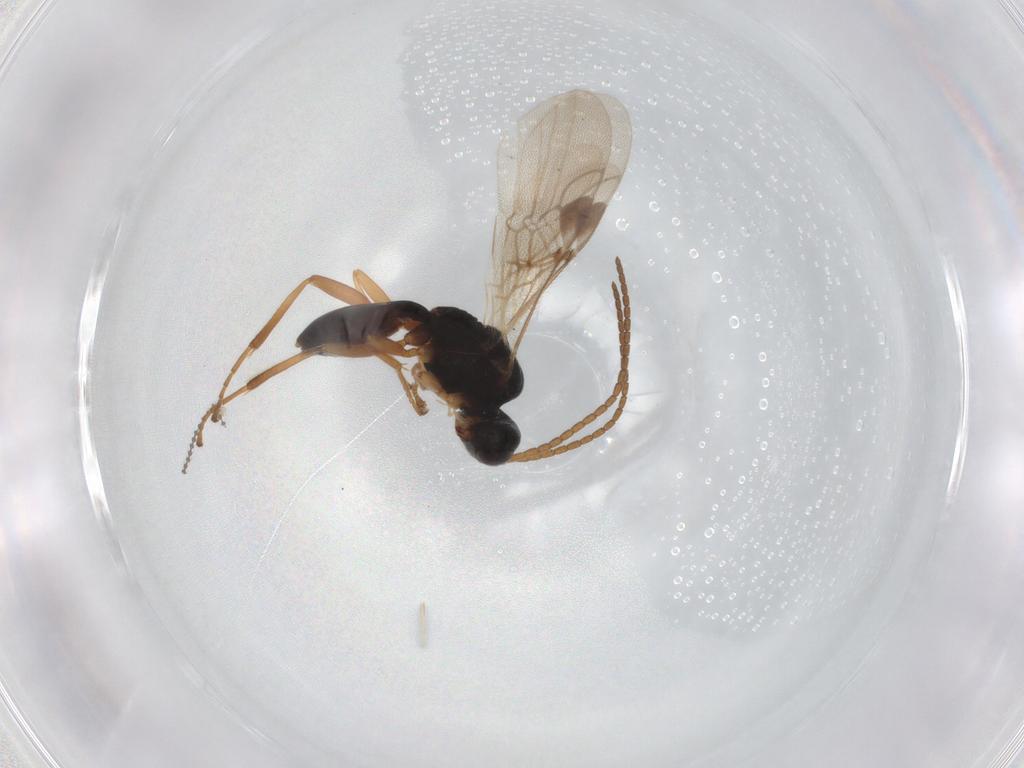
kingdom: Animalia
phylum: Arthropoda
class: Insecta
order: Hymenoptera
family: Braconidae
